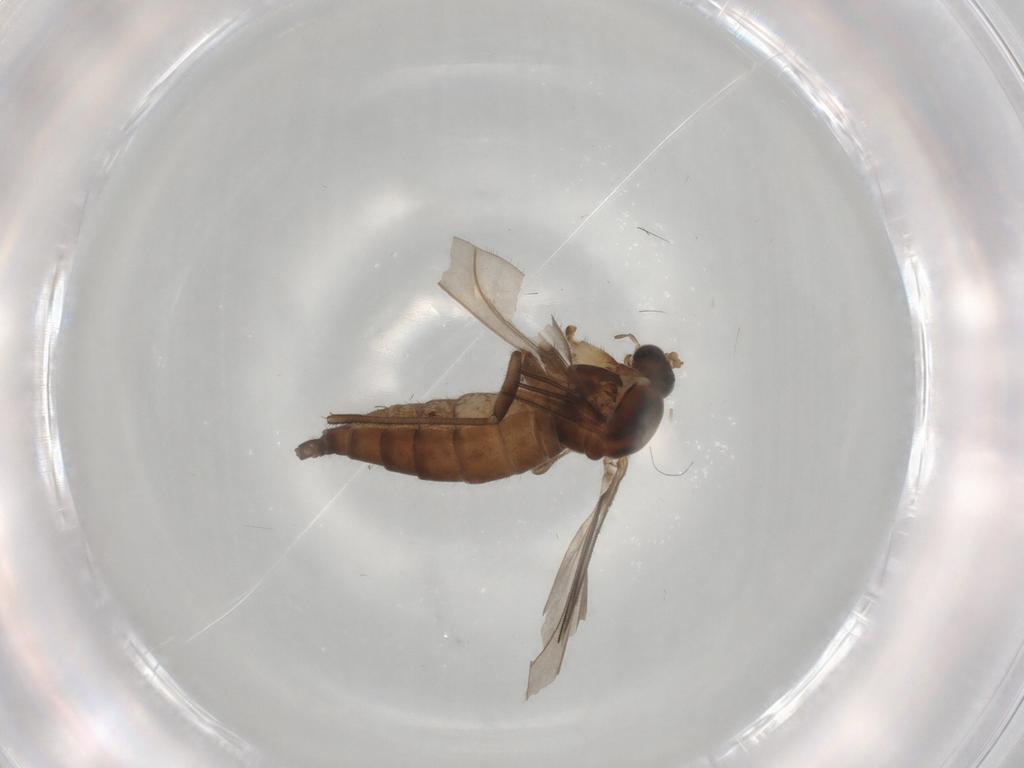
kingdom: Animalia
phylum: Arthropoda
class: Insecta
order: Diptera
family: Sciaridae
